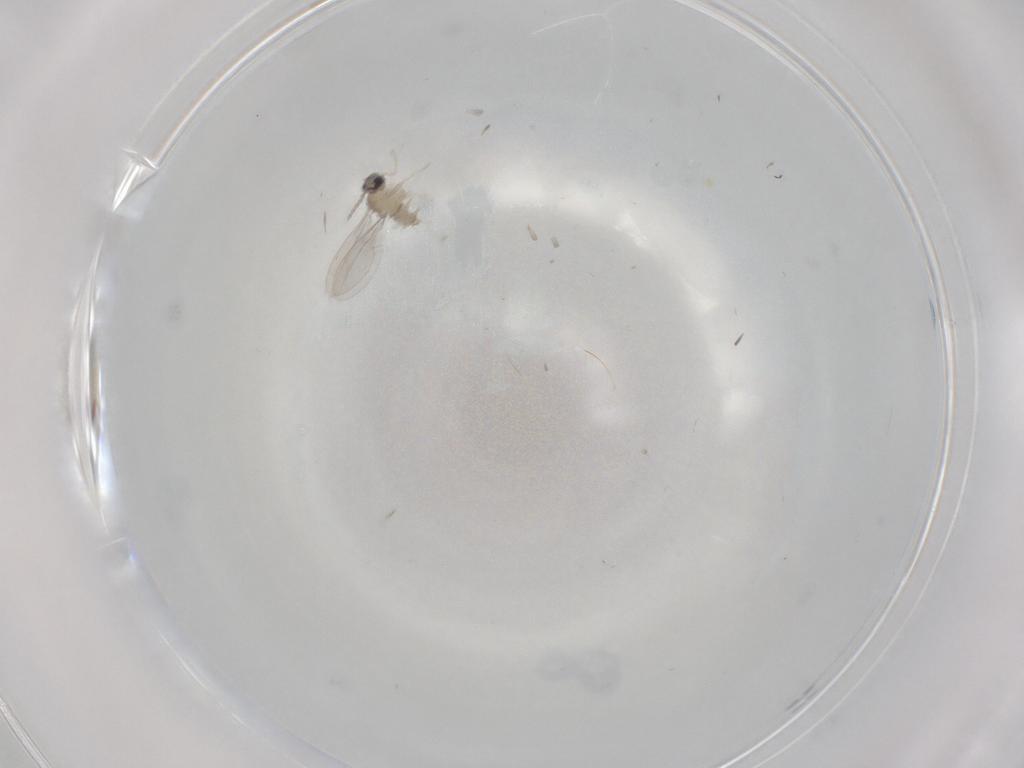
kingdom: Animalia
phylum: Arthropoda
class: Insecta
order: Diptera
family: Cecidomyiidae
